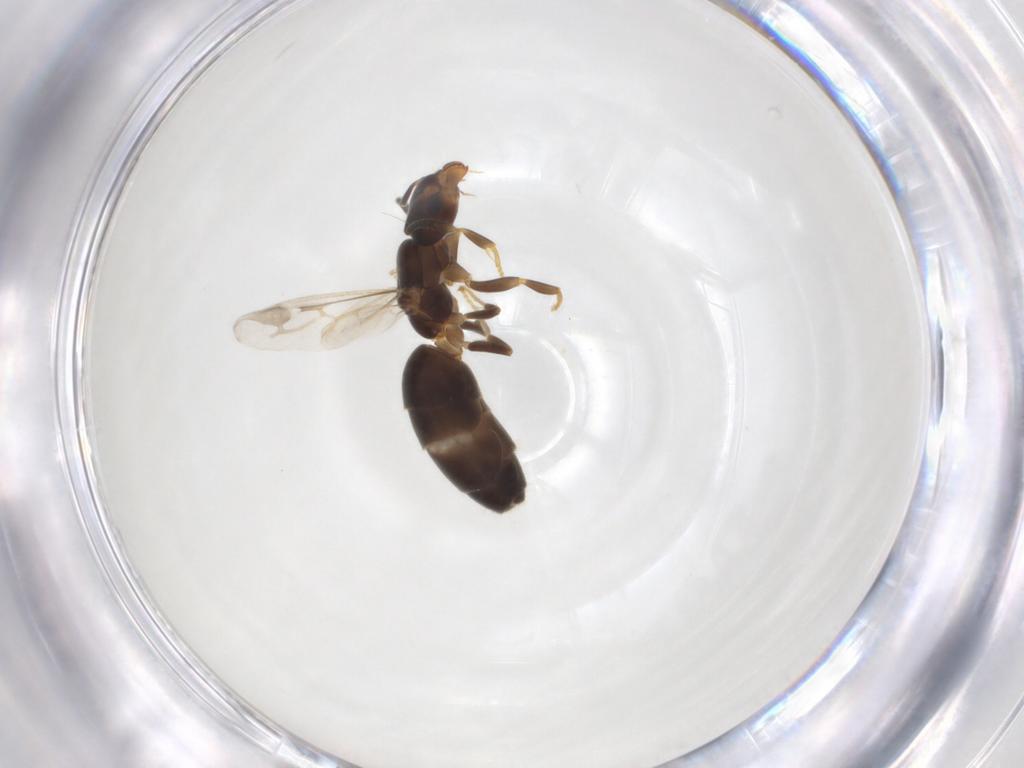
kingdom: Animalia
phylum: Arthropoda
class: Insecta
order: Hymenoptera
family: Formicidae
